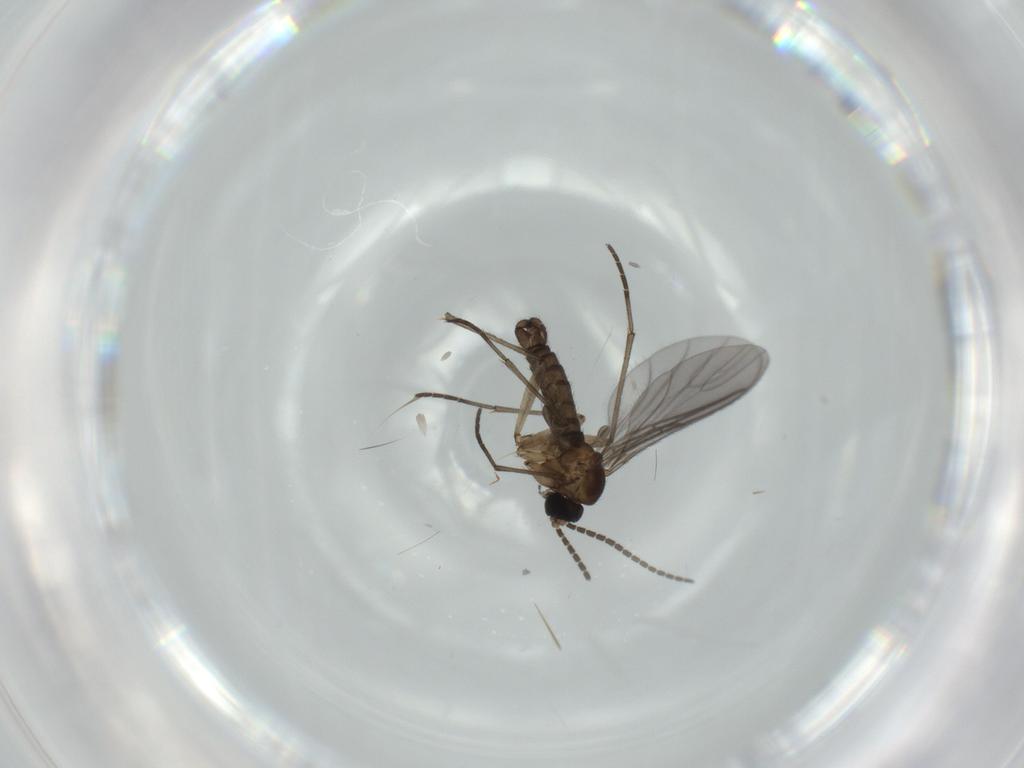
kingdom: Animalia
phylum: Arthropoda
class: Insecta
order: Diptera
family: Sciaridae
